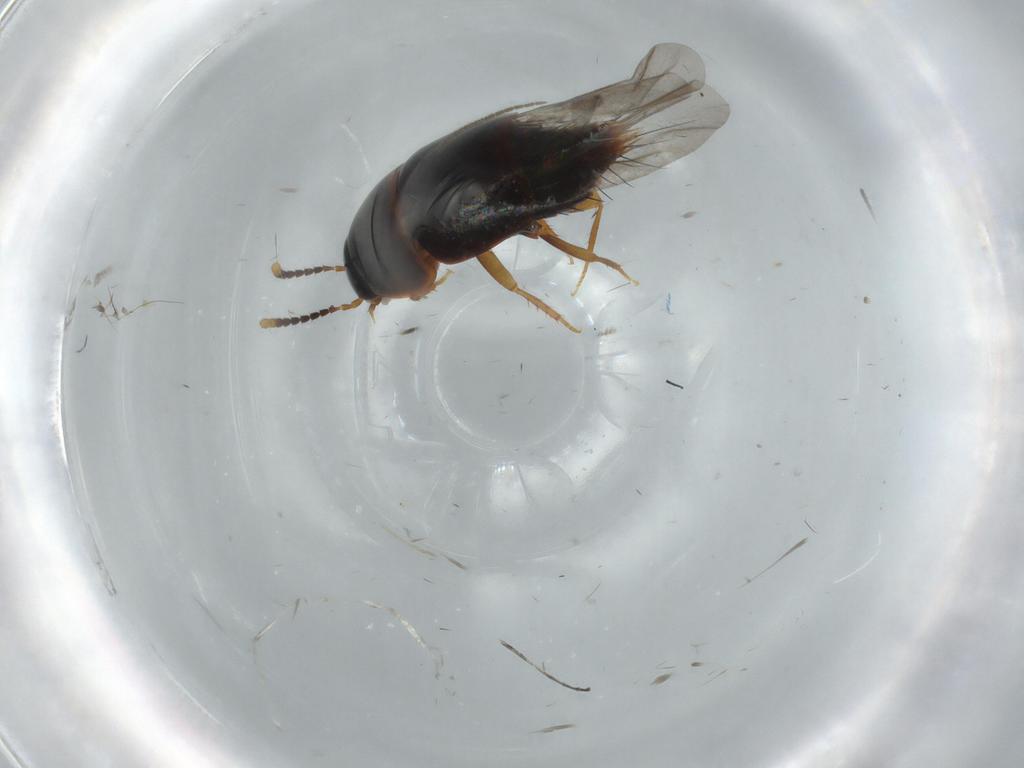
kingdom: Animalia
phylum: Arthropoda
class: Insecta
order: Coleoptera
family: Staphylinidae
